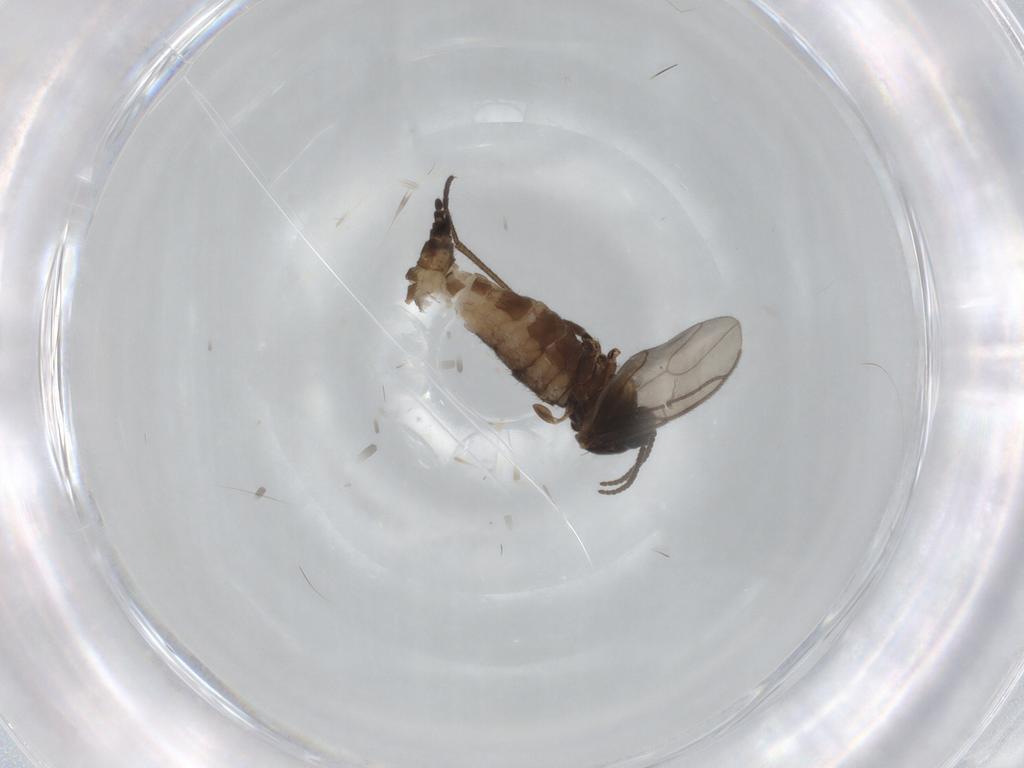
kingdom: Animalia
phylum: Arthropoda
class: Insecta
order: Diptera
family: Sciaridae
